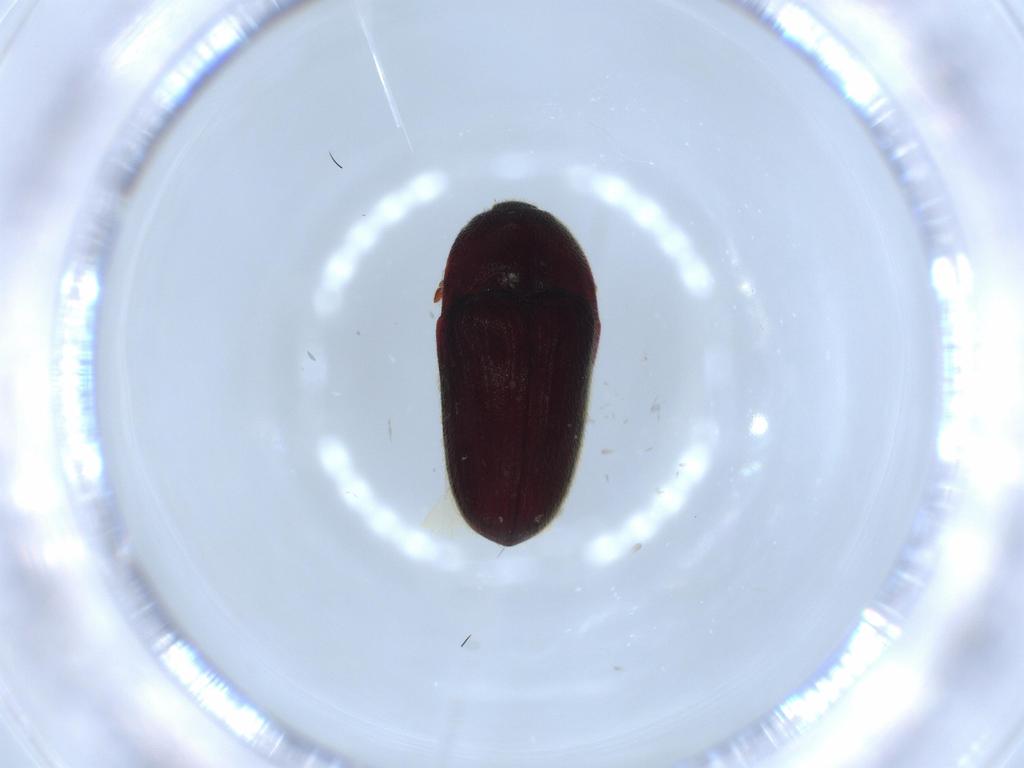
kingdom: Animalia
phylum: Arthropoda
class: Insecta
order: Coleoptera
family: Throscidae
